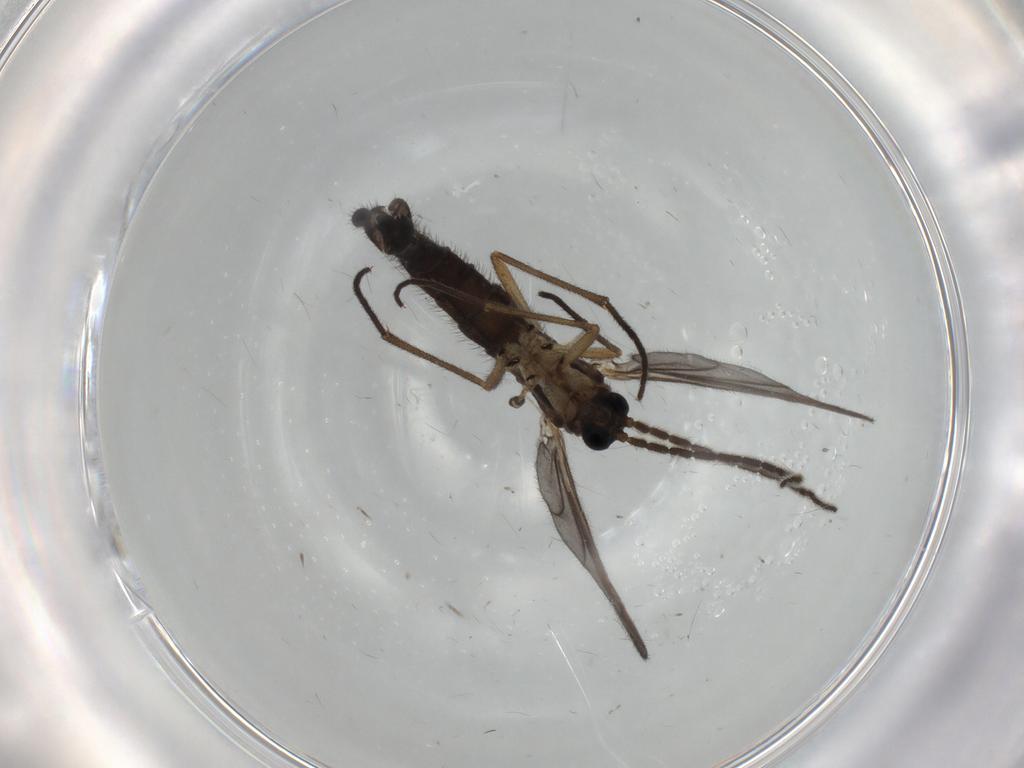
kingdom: Animalia
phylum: Arthropoda
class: Insecta
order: Diptera
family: Sciaridae
